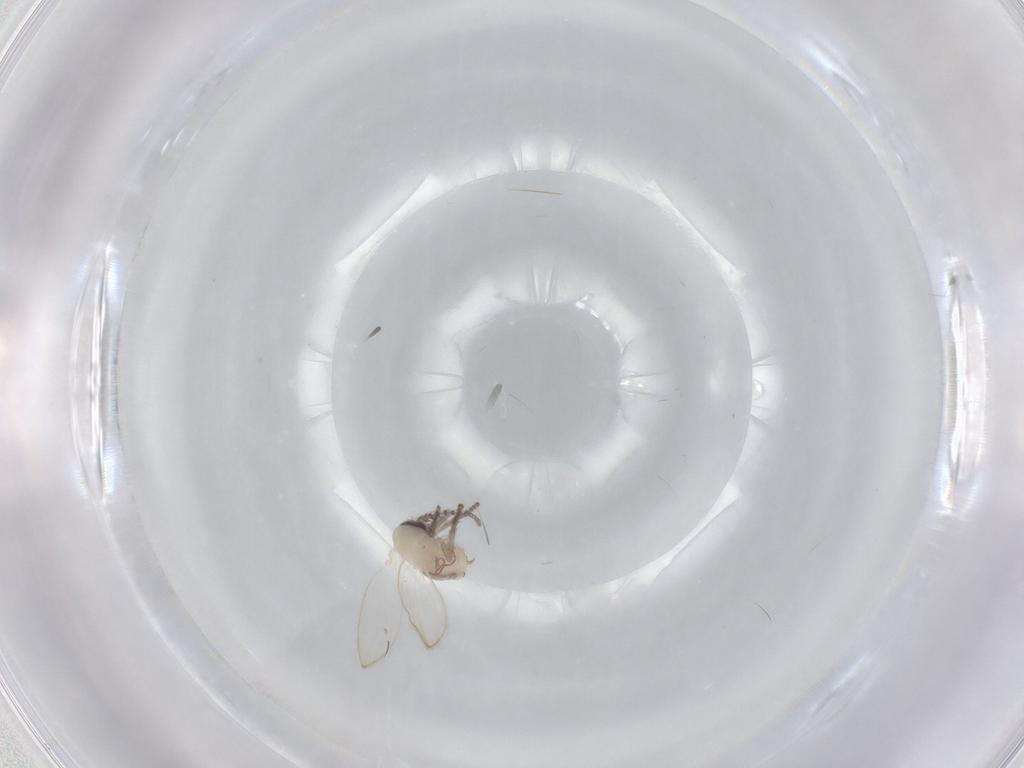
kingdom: Animalia
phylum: Arthropoda
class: Insecta
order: Diptera
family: Psychodidae
